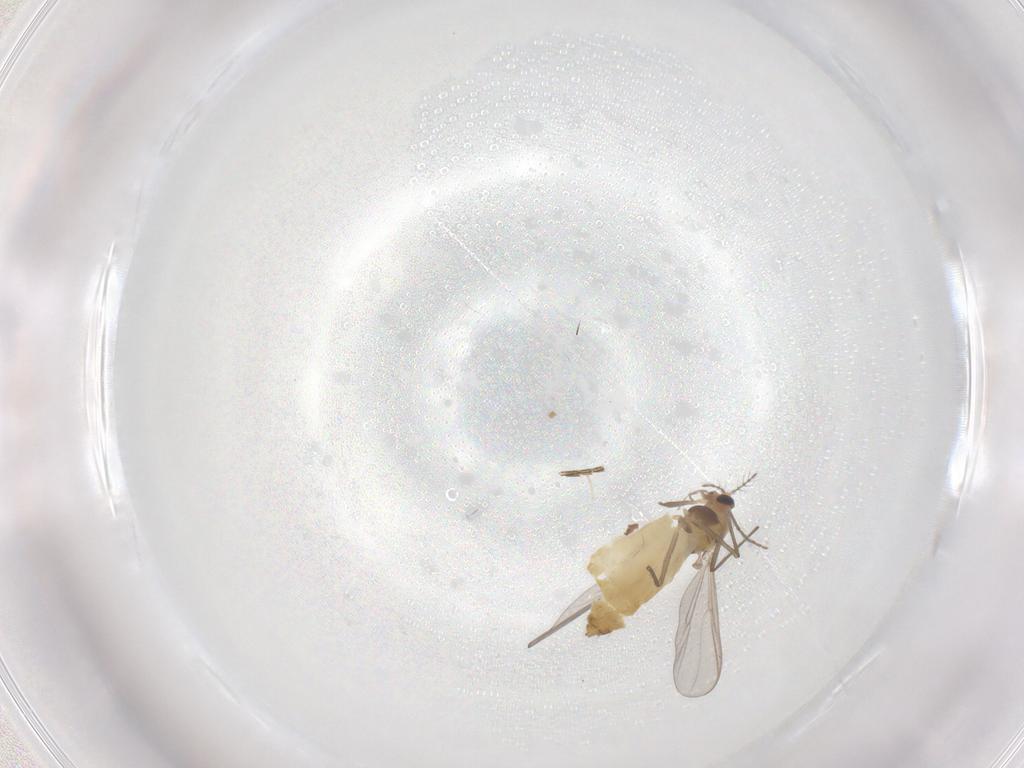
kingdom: Animalia
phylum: Arthropoda
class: Insecta
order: Diptera
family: Chironomidae
